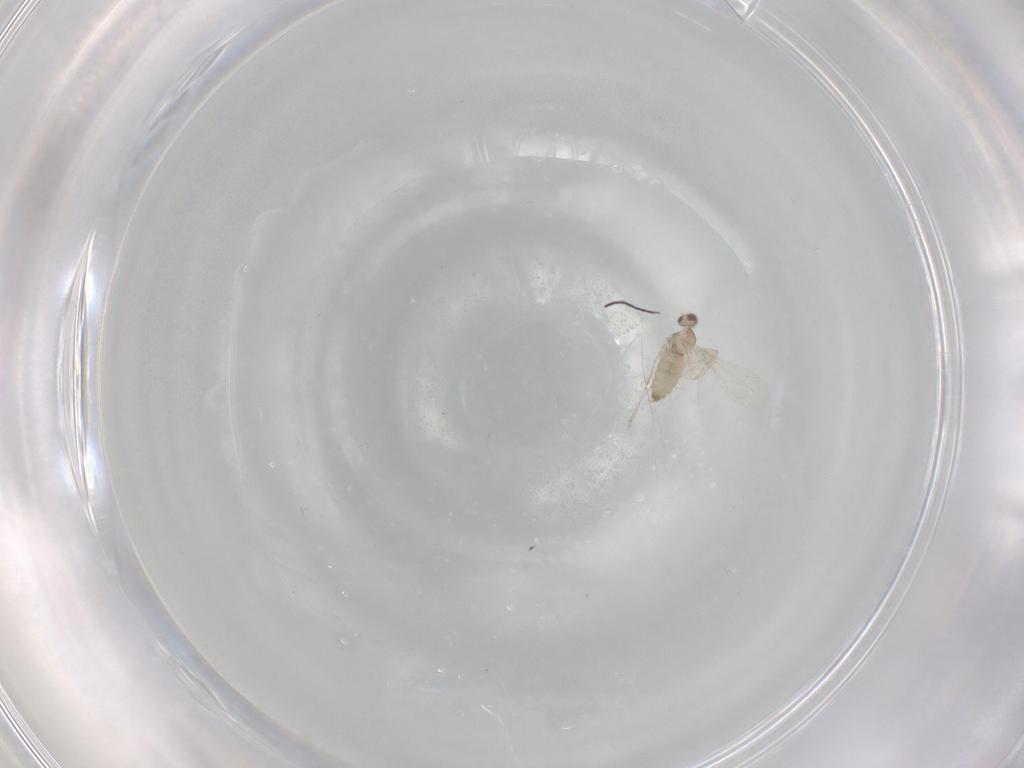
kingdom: Animalia
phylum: Arthropoda
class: Insecta
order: Diptera
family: Cecidomyiidae
